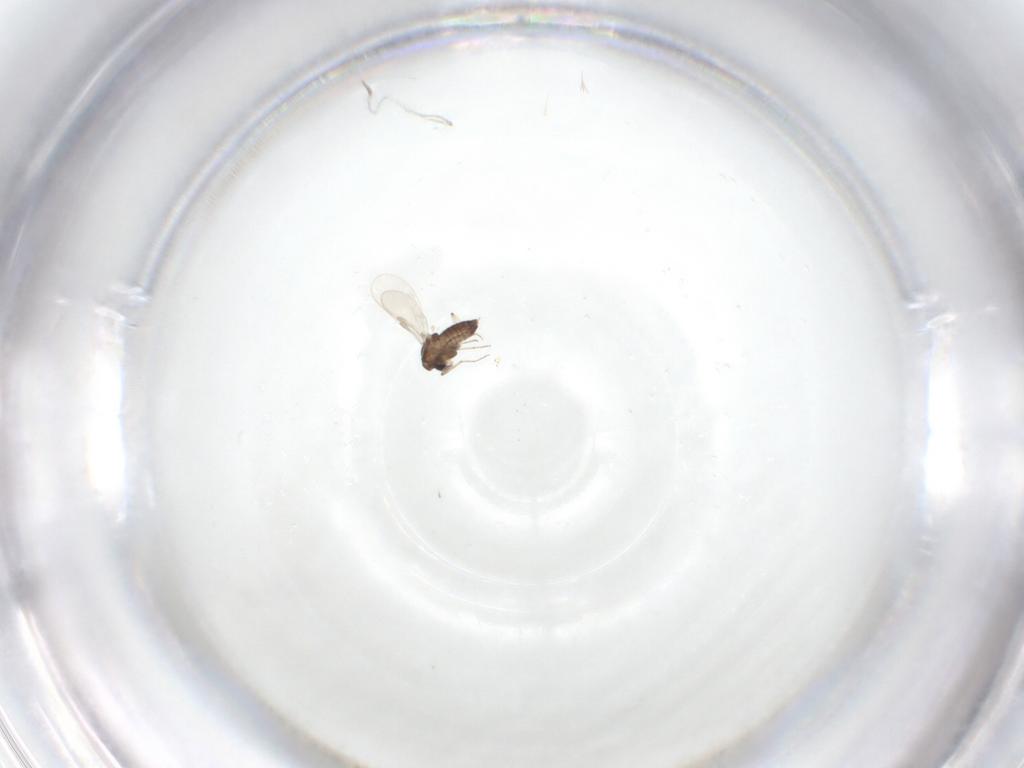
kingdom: Animalia
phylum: Arthropoda
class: Insecta
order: Diptera
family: Chironomidae
